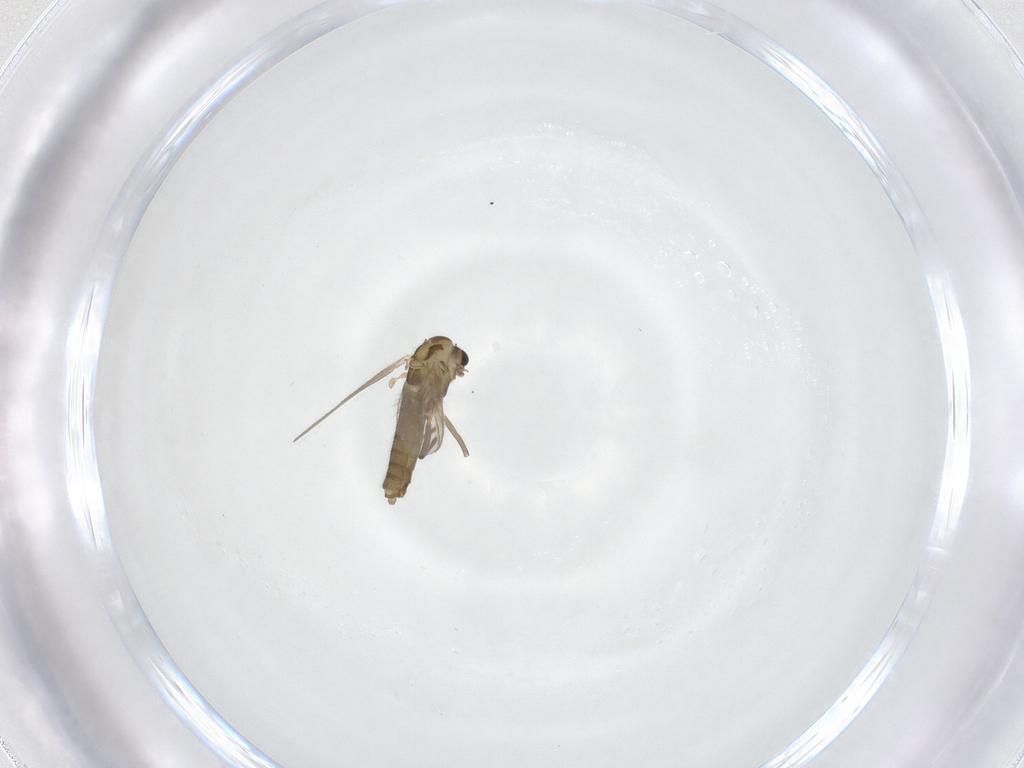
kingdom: Animalia
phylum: Arthropoda
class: Insecta
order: Diptera
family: Chironomidae
